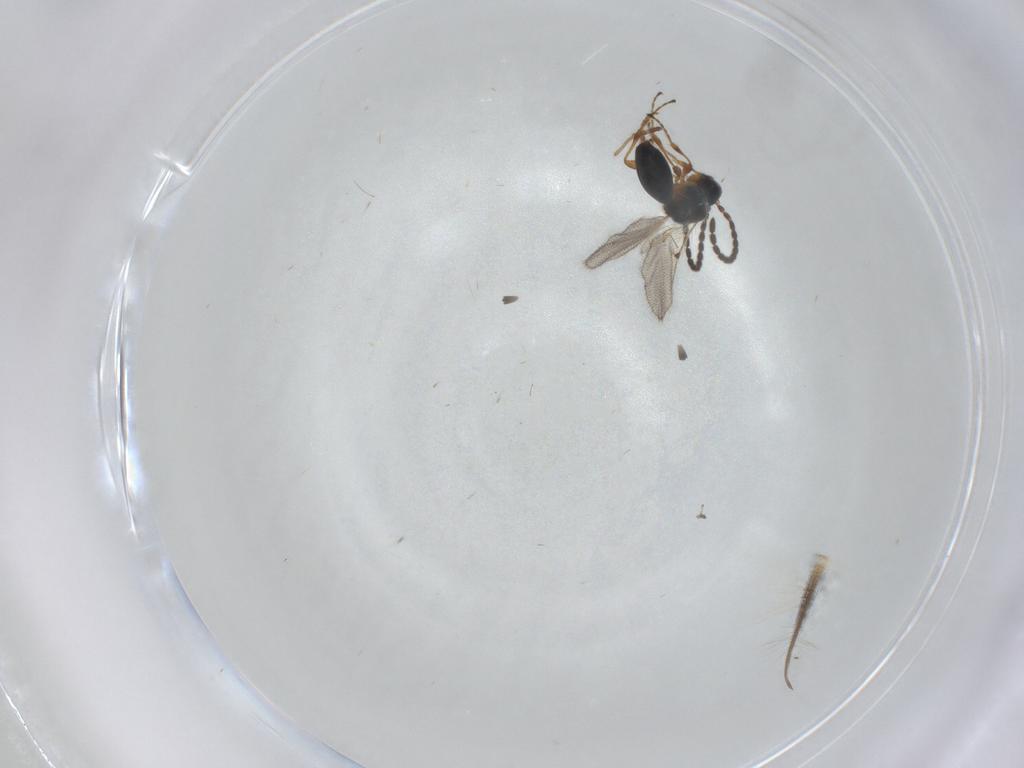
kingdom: Animalia
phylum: Arthropoda
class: Insecta
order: Hymenoptera
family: Diapriidae
